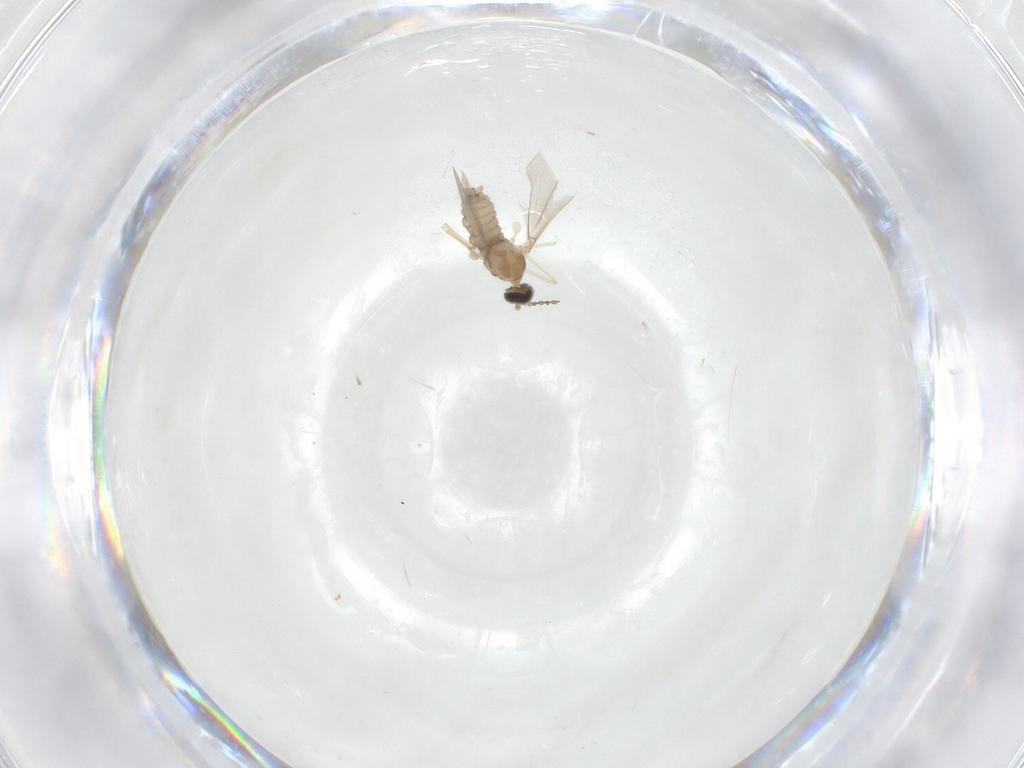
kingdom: Animalia
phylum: Arthropoda
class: Insecta
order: Diptera
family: Cecidomyiidae
